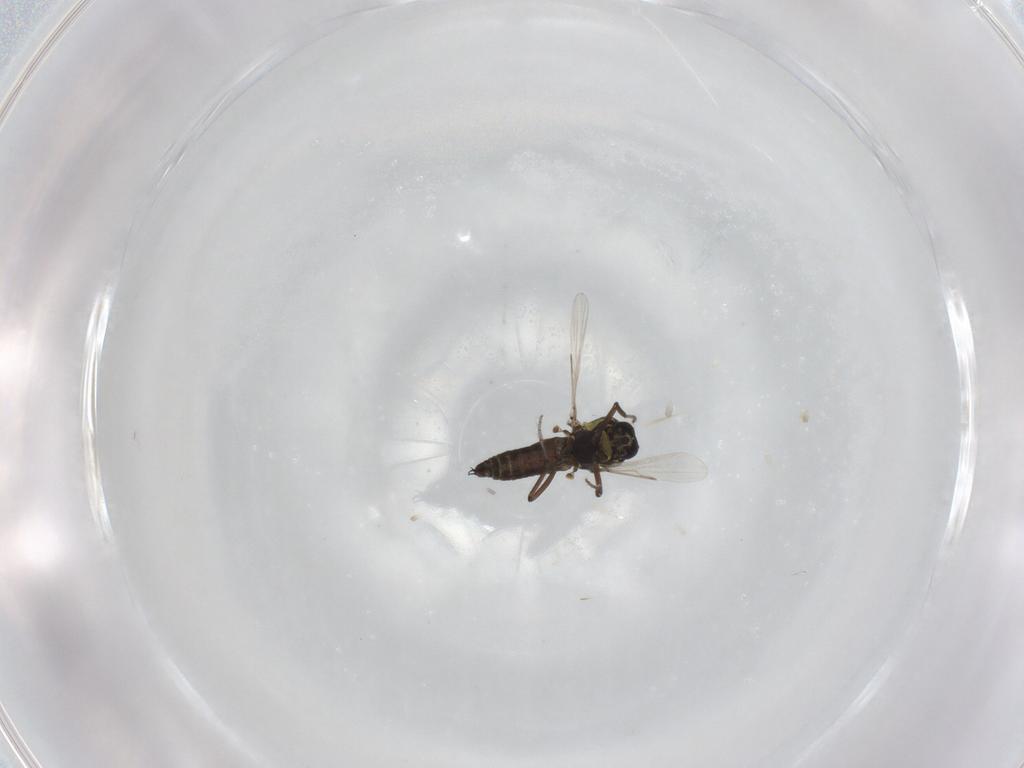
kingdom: Animalia
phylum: Arthropoda
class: Insecta
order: Diptera
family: Ceratopogonidae
